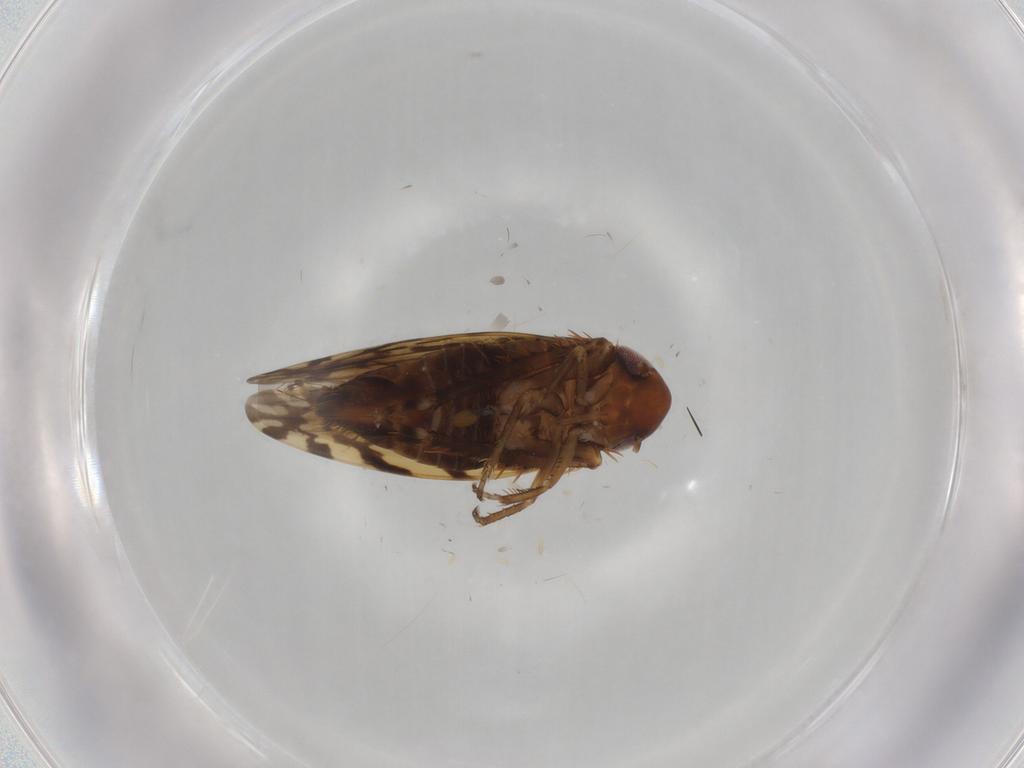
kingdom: Animalia
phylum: Arthropoda
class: Insecta
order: Hemiptera
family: Cicadellidae
